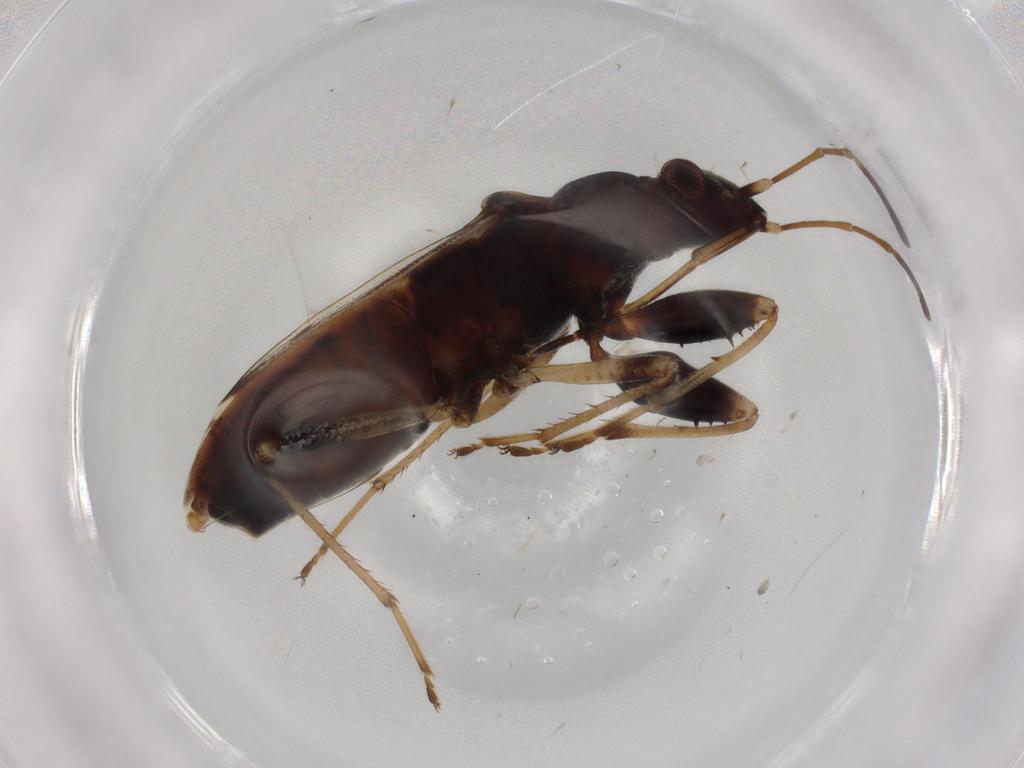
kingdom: Animalia
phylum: Arthropoda
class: Insecta
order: Hemiptera
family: Rhyparochromidae
